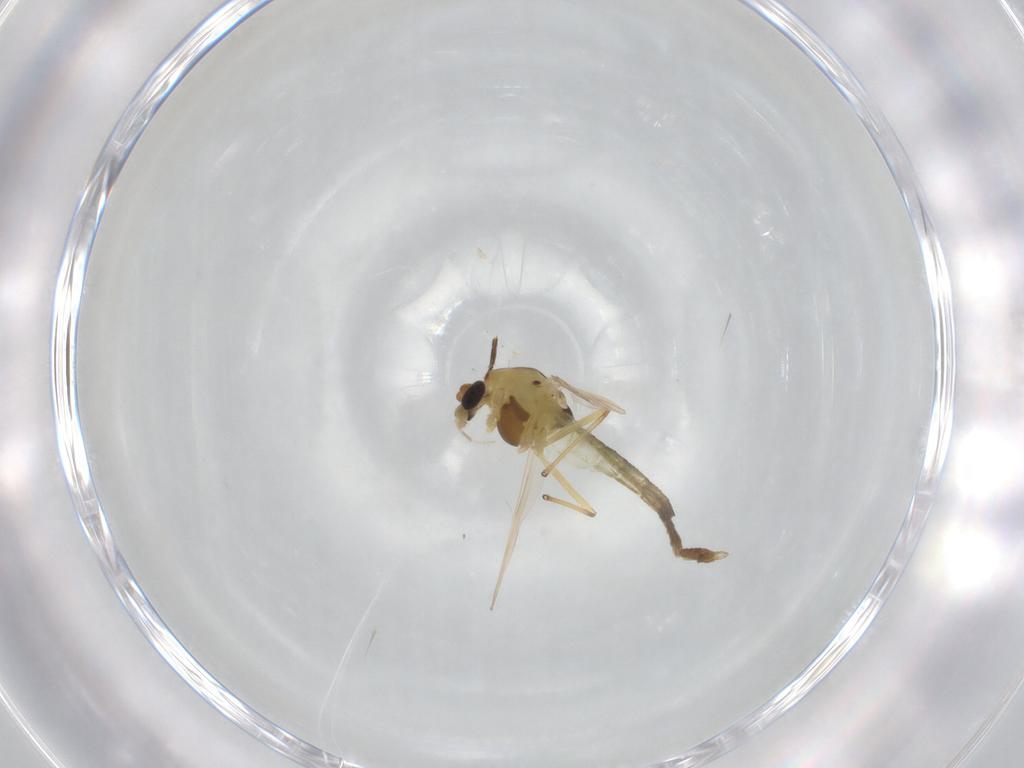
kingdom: Animalia
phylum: Arthropoda
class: Insecta
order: Diptera
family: Chironomidae
